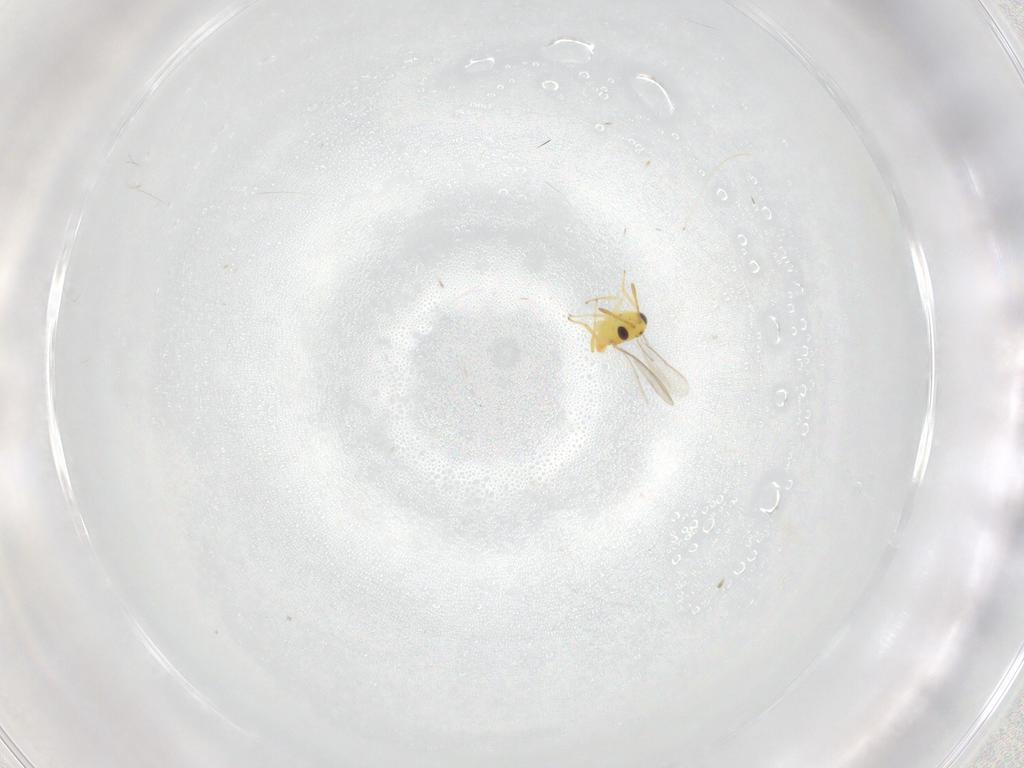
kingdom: Animalia
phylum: Arthropoda
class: Insecta
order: Hymenoptera
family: Aphelinidae
